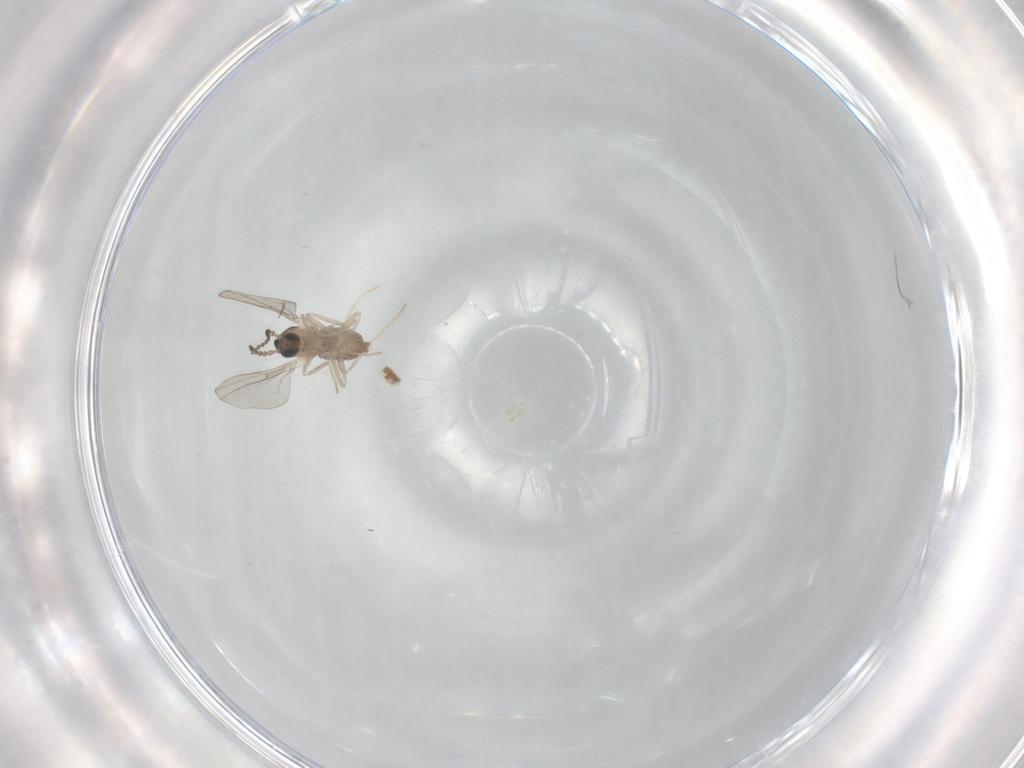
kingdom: Animalia
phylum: Arthropoda
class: Insecta
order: Diptera
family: Cecidomyiidae
